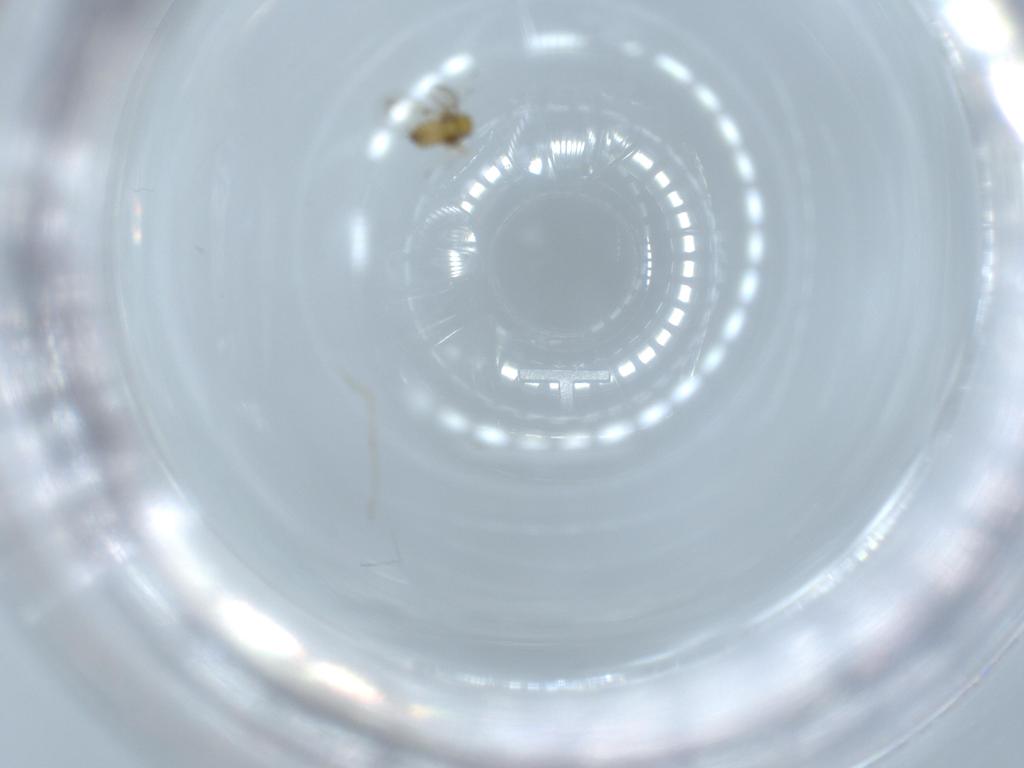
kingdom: Animalia
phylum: Arthropoda
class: Insecta
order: Hymenoptera
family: Trichogrammatidae
